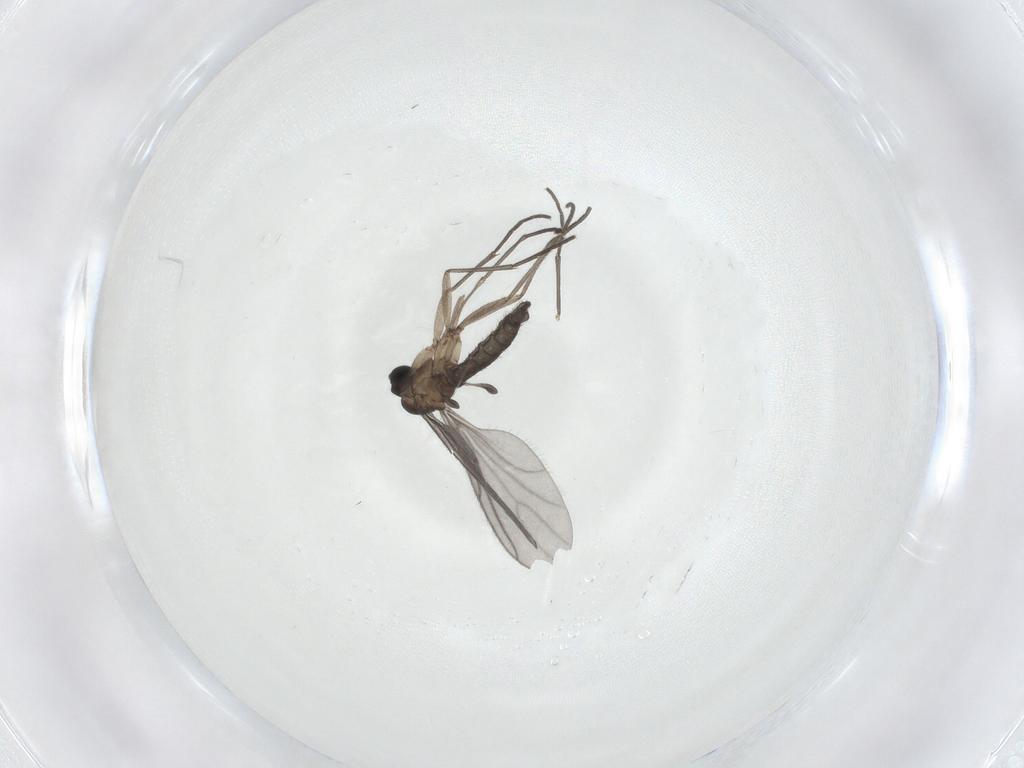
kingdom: Animalia
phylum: Arthropoda
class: Insecta
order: Diptera
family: Sciaridae
